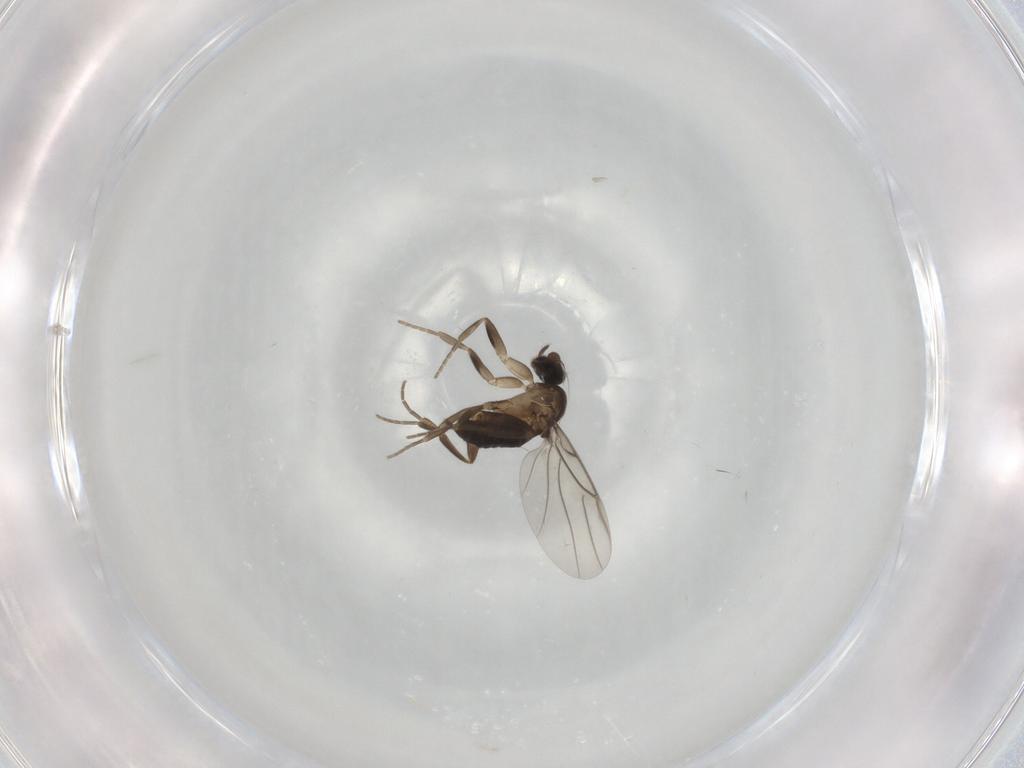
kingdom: Animalia
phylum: Arthropoda
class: Insecta
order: Diptera
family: Phoridae
